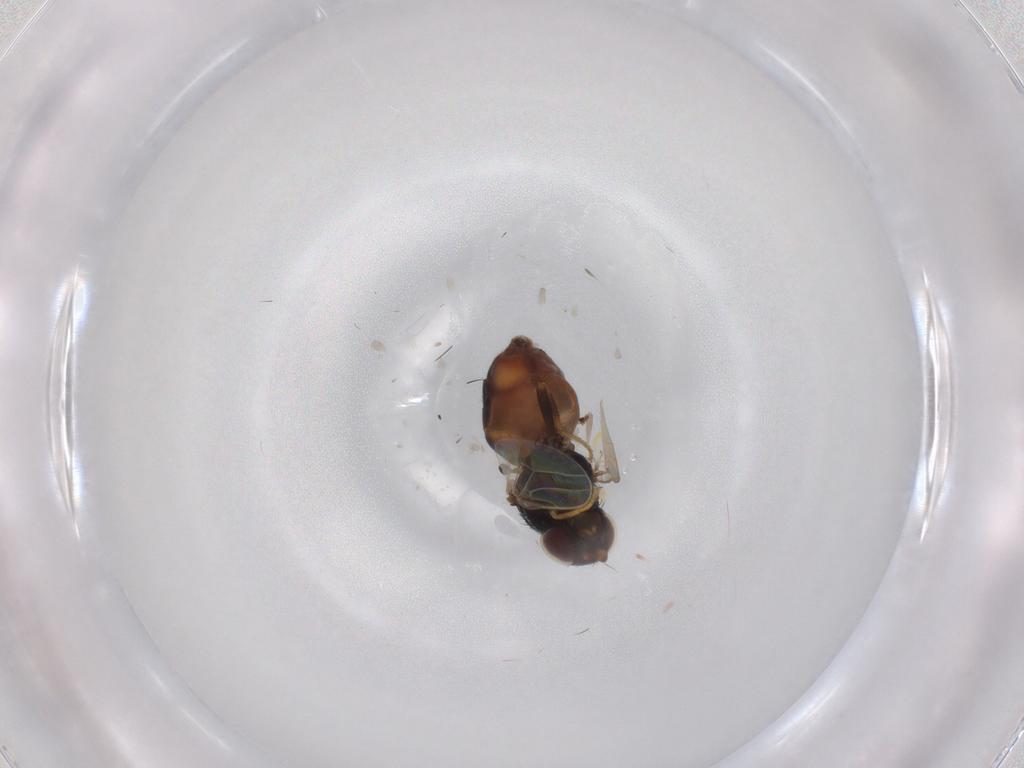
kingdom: Animalia
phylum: Arthropoda
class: Insecta
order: Diptera
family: Chloropidae
